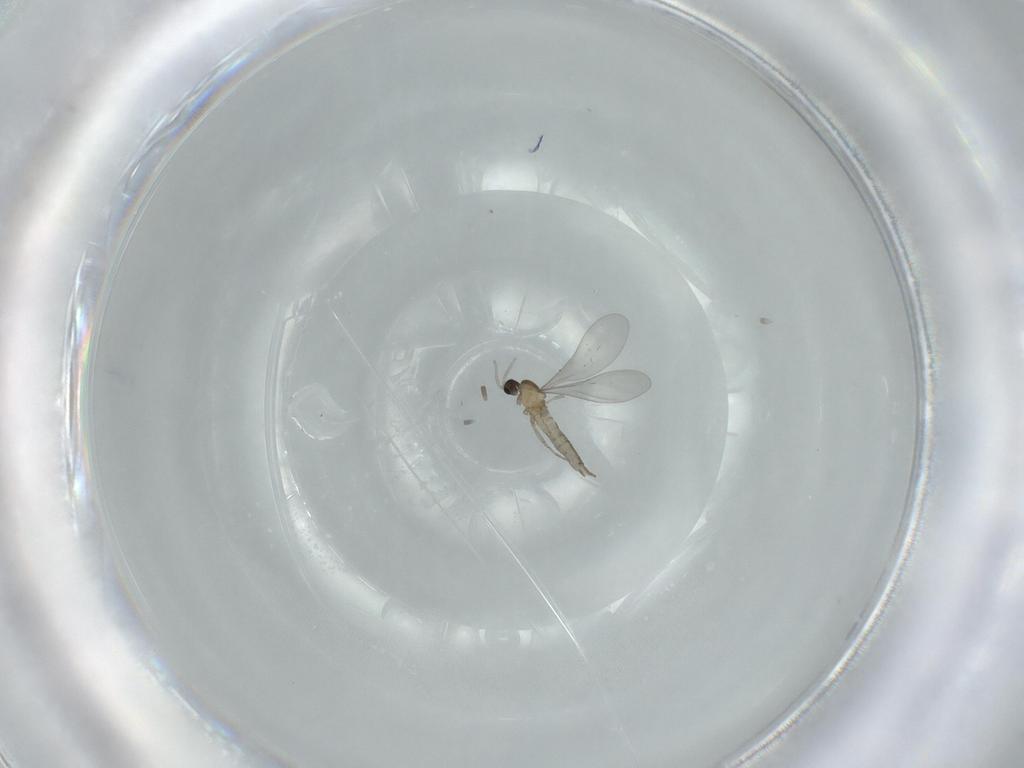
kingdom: Animalia
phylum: Arthropoda
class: Insecta
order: Diptera
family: Cecidomyiidae
